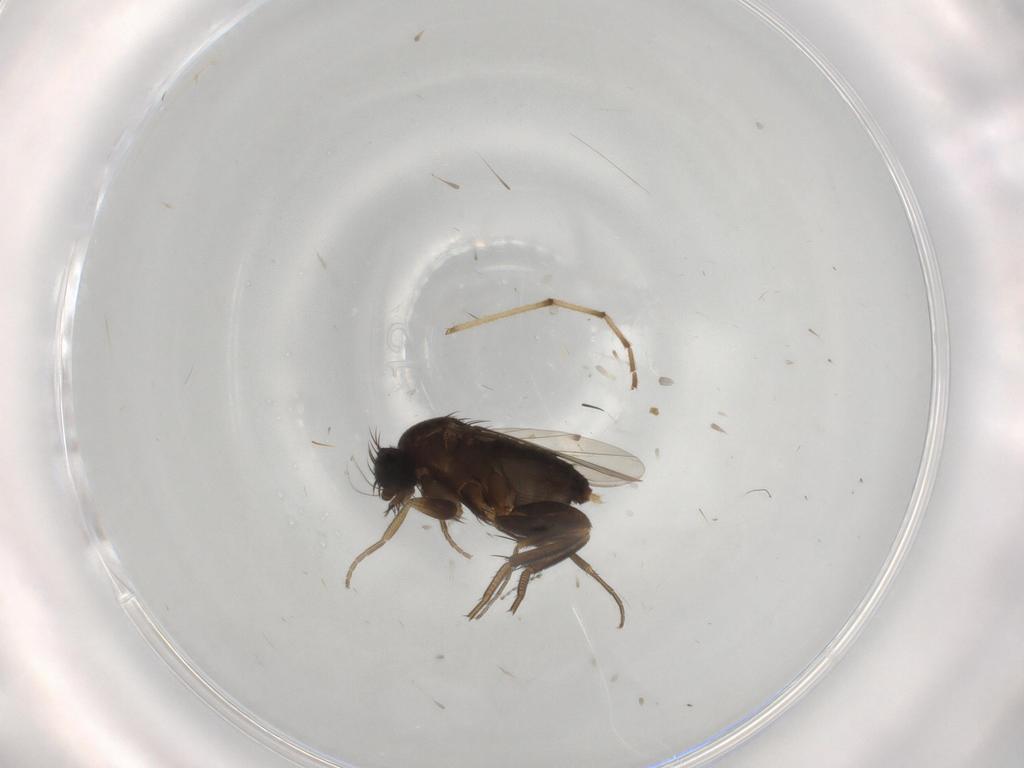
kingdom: Animalia
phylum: Arthropoda
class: Insecta
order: Diptera
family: Phoridae
